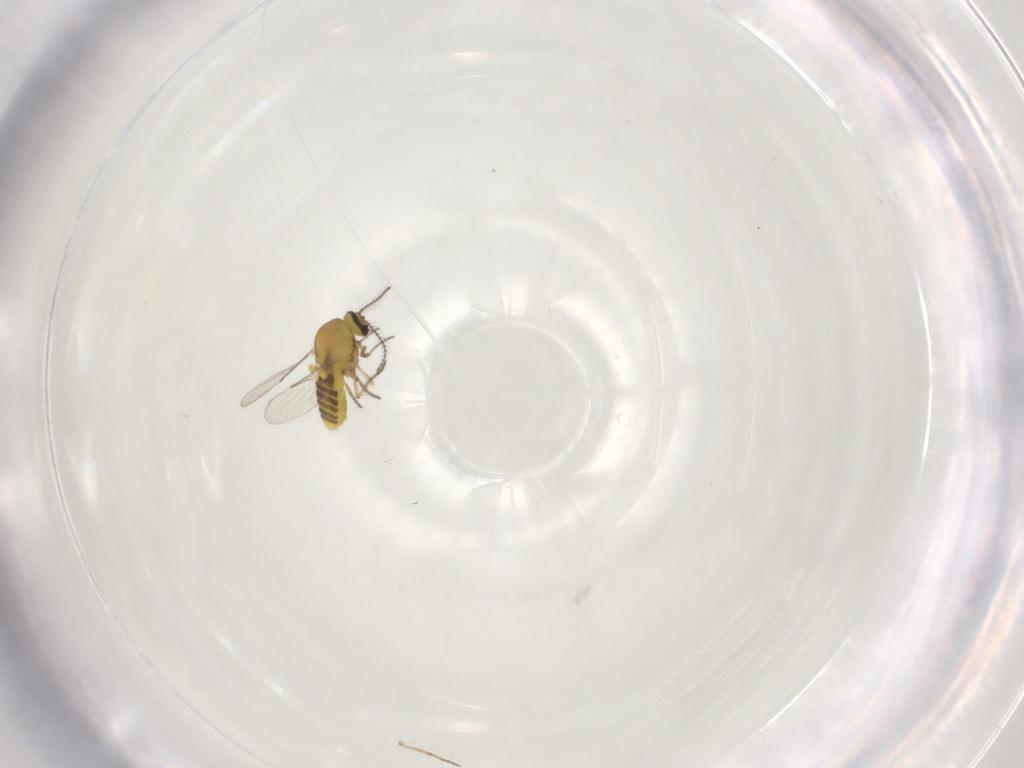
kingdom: Animalia
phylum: Arthropoda
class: Insecta
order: Diptera
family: Ceratopogonidae
